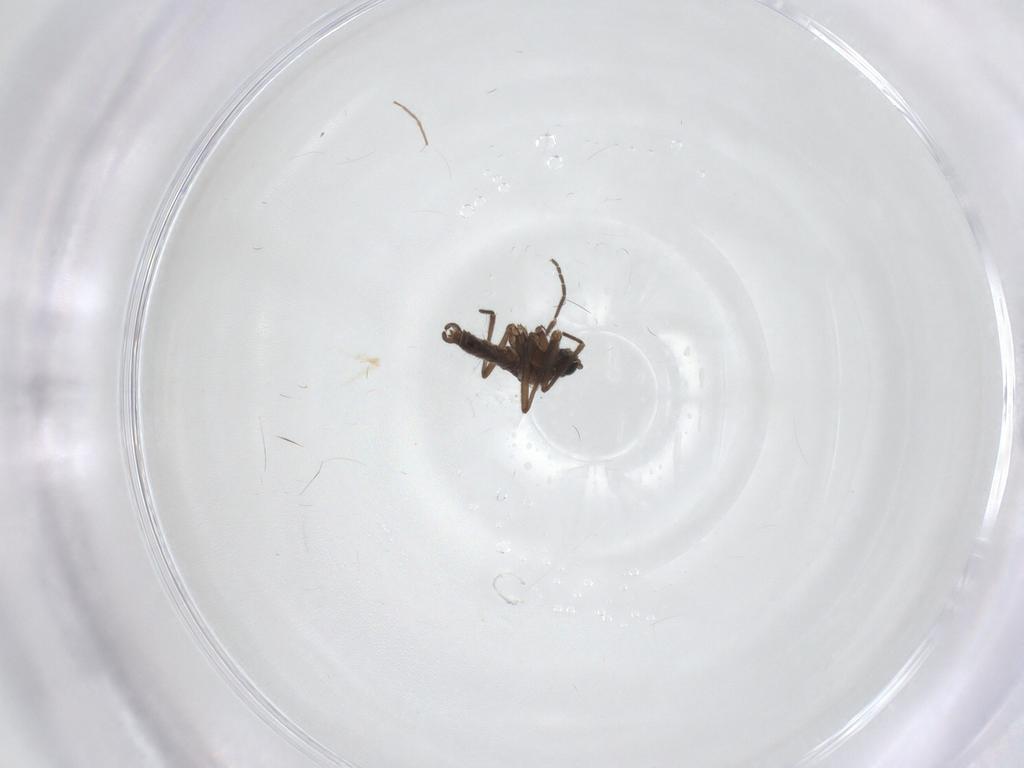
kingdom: Animalia
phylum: Arthropoda
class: Insecta
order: Diptera
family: Sciaridae
